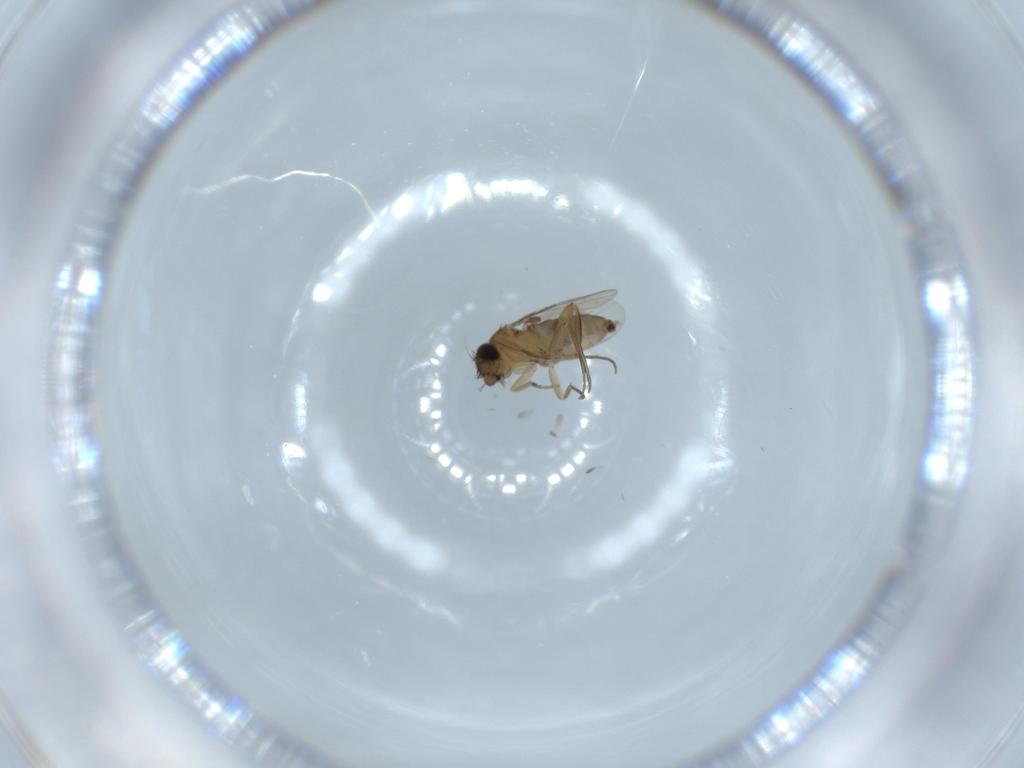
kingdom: Animalia
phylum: Arthropoda
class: Insecta
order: Diptera
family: Phoridae
